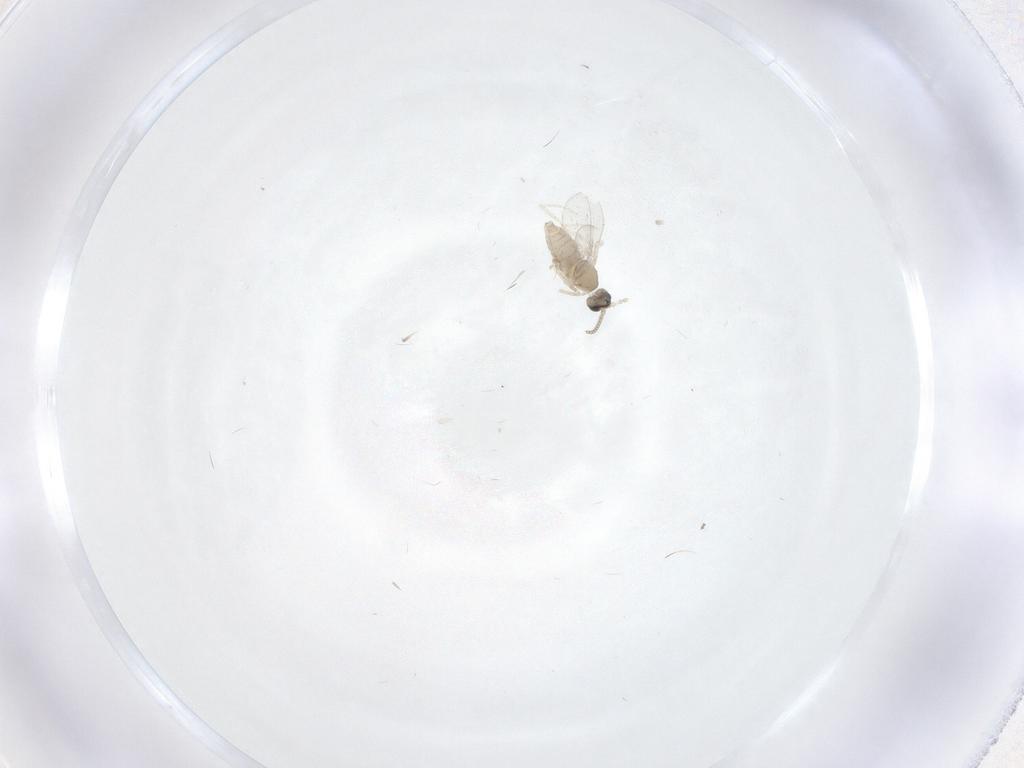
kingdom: Animalia
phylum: Arthropoda
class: Insecta
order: Diptera
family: Cecidomyiidae
